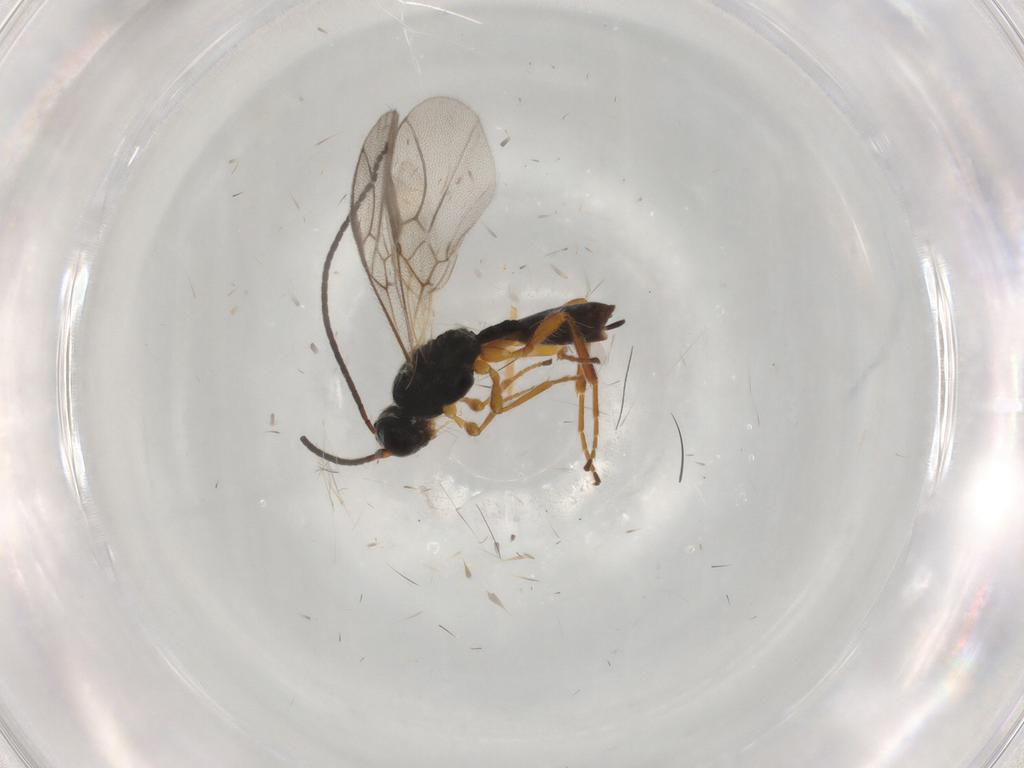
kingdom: Animalia
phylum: Arthropoda
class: Insecta
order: Hymenoptera
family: Braconidae
